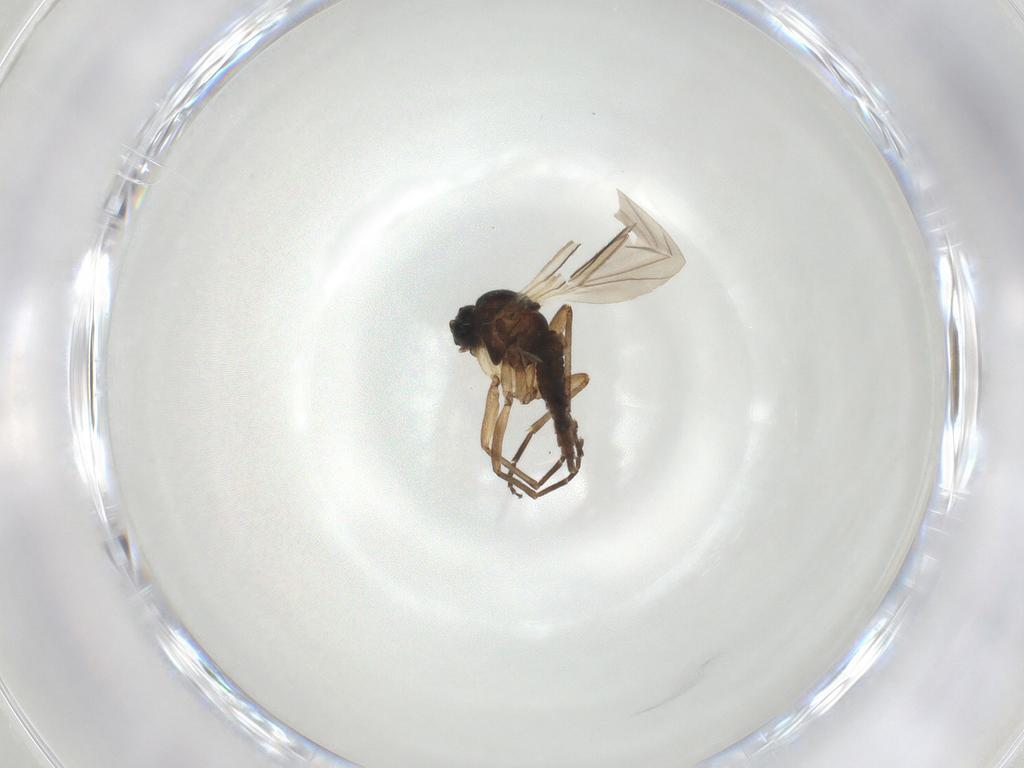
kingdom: Animalia
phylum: Arthropoda
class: Insecta
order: Diptera
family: Sciaridae
